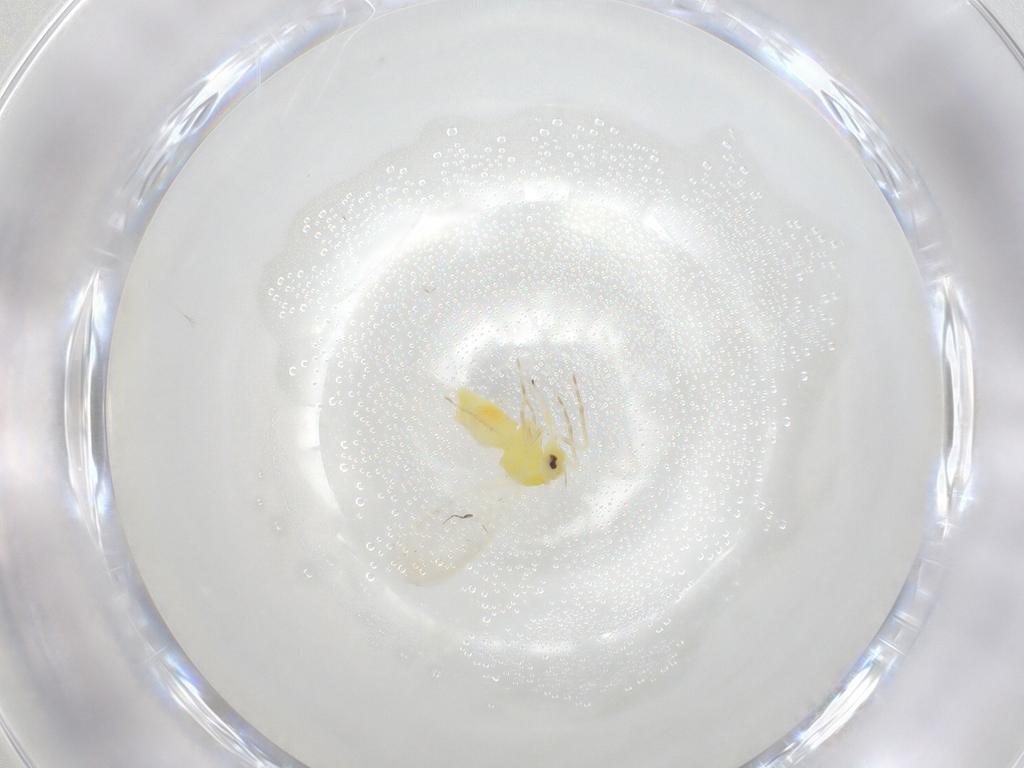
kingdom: Animalia
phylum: Arthropoda
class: Insecta
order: Hemiptera
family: Aleyrodidae
